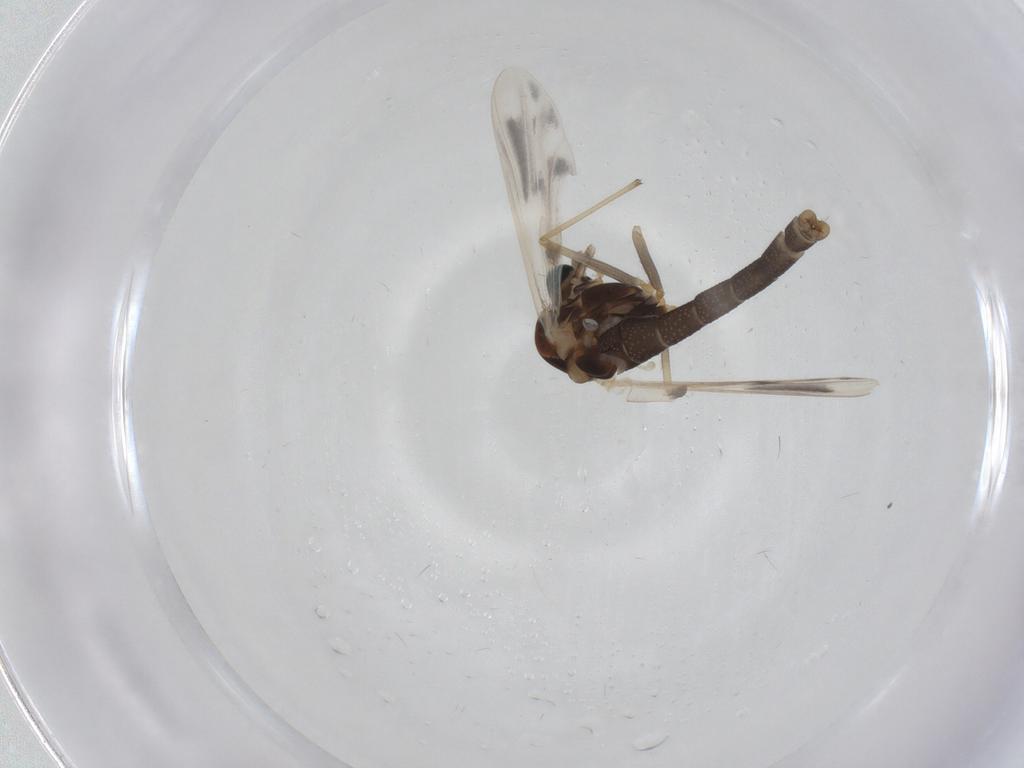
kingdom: Animalia
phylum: Arthropoda
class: Insecta
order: Diptera
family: Chironomidae
